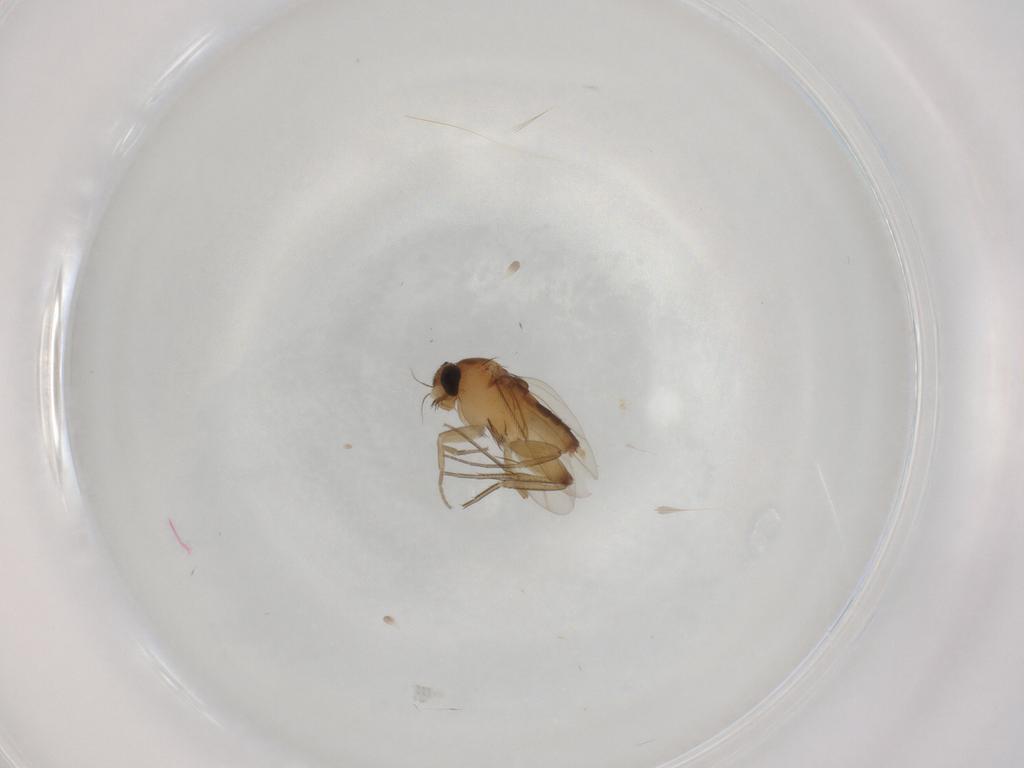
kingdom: Animalia
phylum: Arthropoda
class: Insecta
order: Diptera
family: Phoridae
